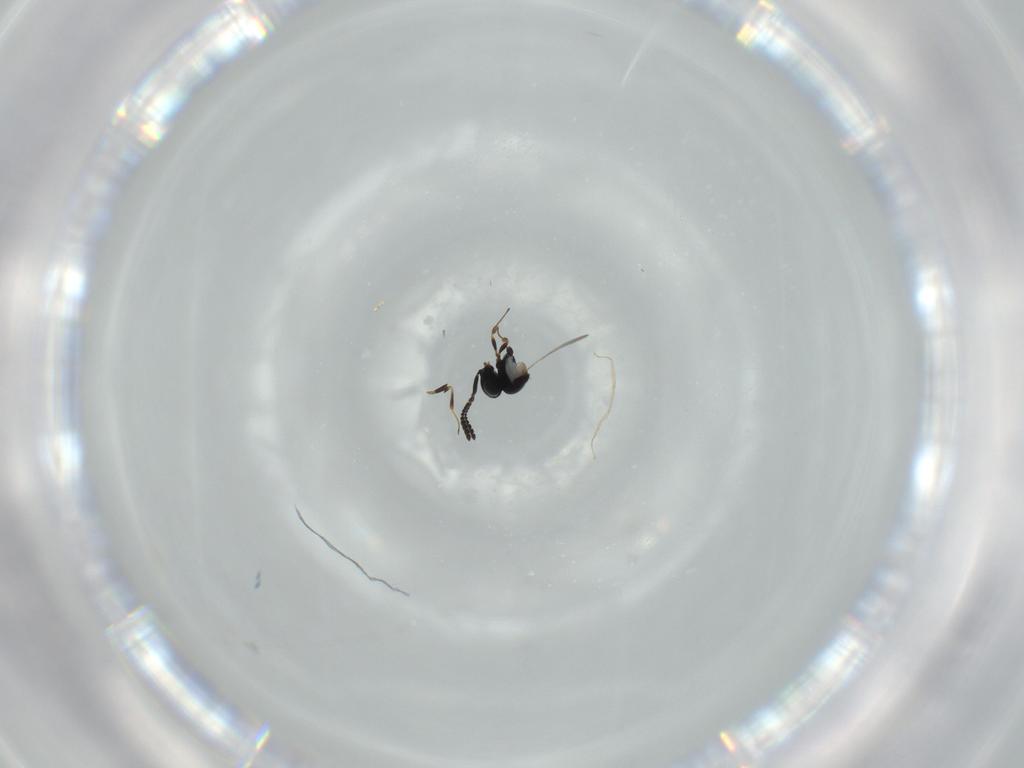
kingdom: Animalia
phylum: Arthropoda
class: Insecta
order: Hymenoptera
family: Scelionidae
